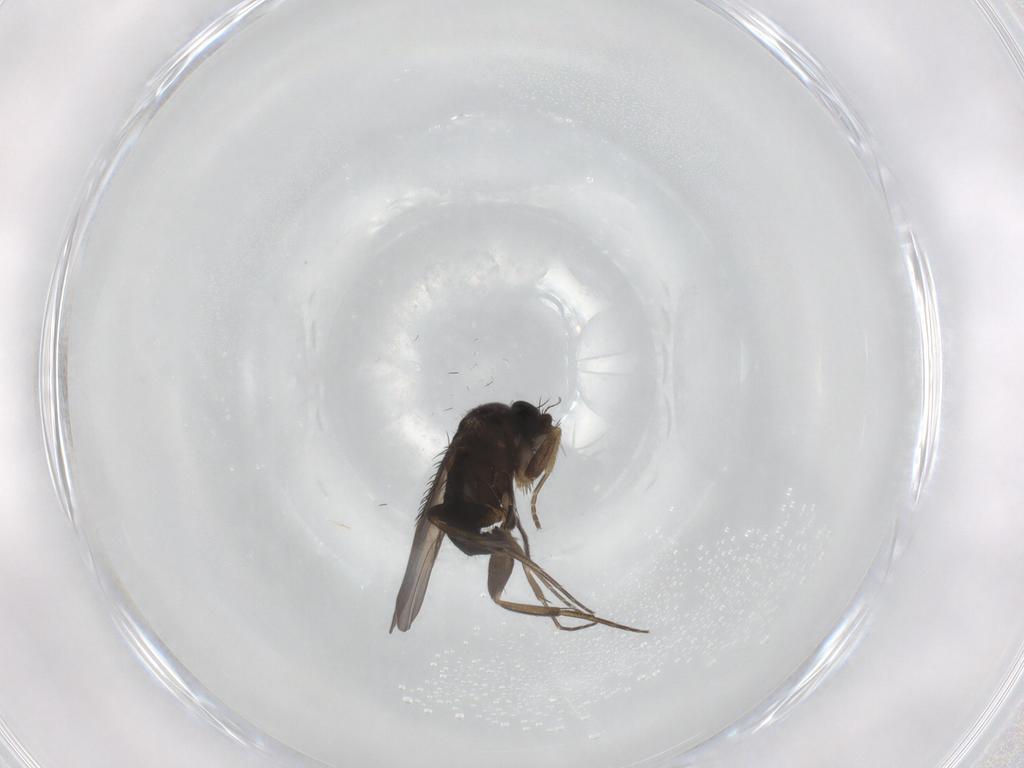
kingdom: Animalia
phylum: Arthropoda
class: Insecta
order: Diptera
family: Phoridae
